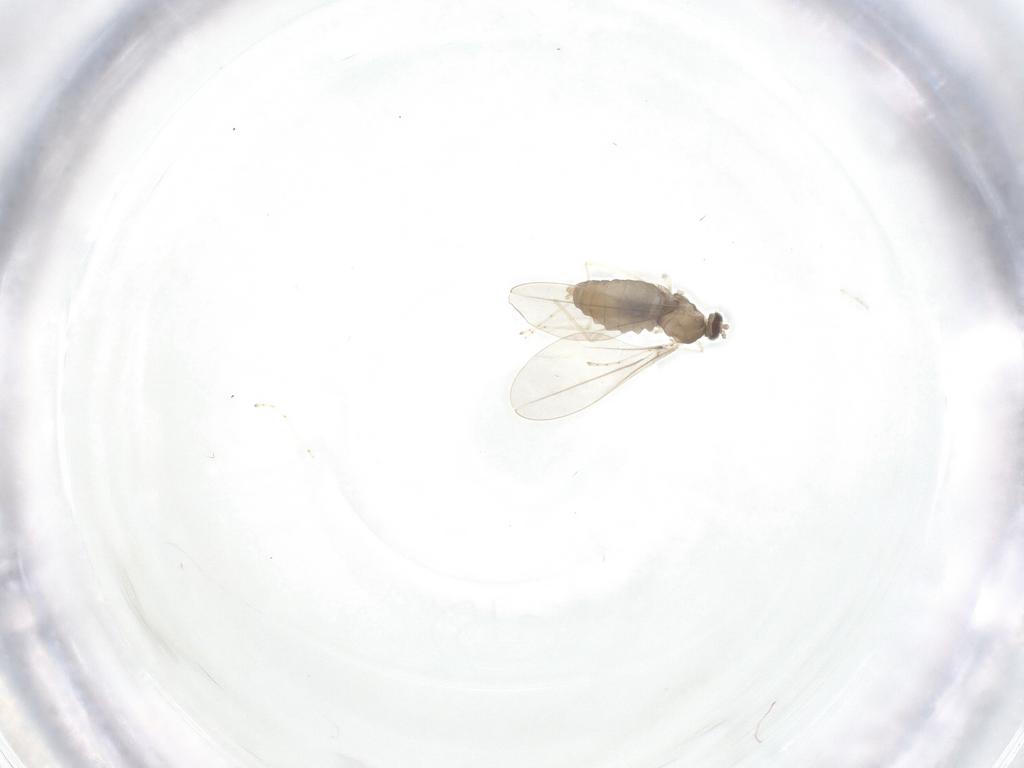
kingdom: Animalia
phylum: Arthropoda
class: Insecta
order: Diptera
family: Cecidomyiidae
